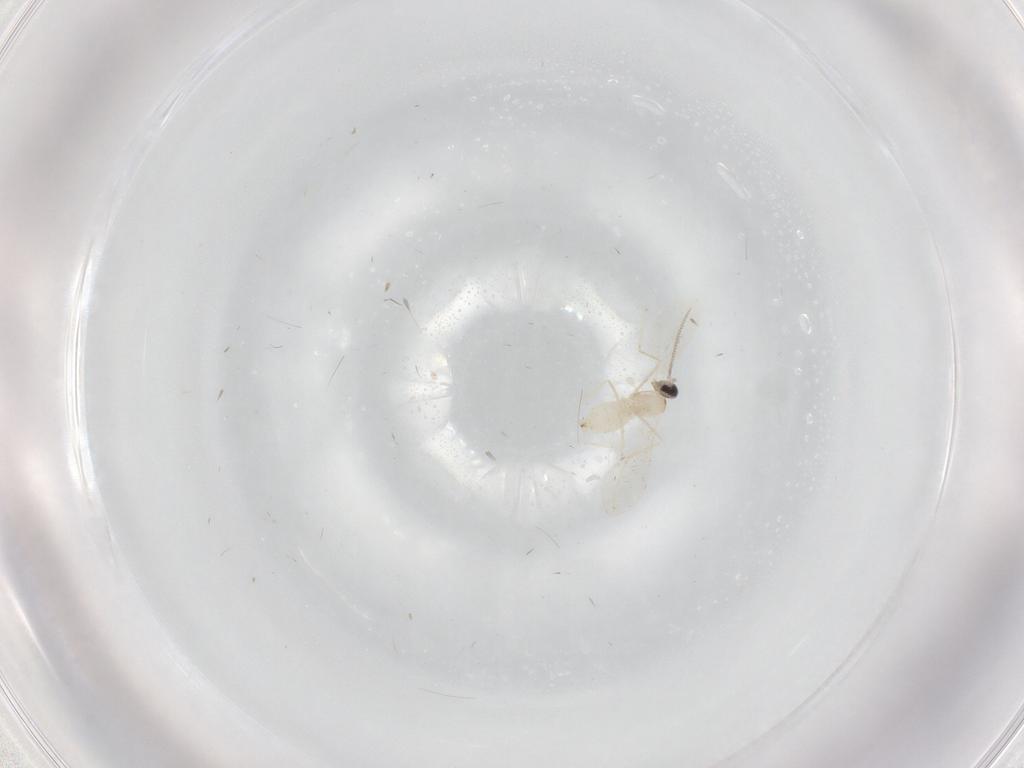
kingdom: Animalia
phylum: Arthropoda
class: Insecta
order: Diptera
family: Cecidomyiidae
